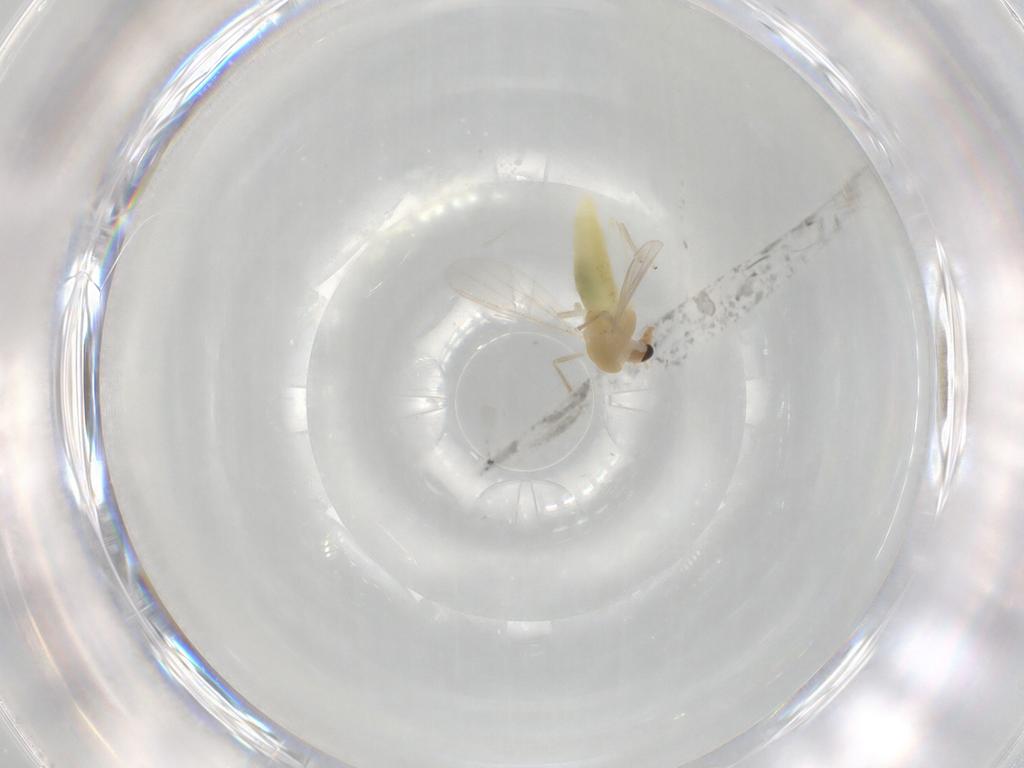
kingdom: Animalia
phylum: Arthropoda
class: Insecta
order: Diptera
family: Chironomidae
